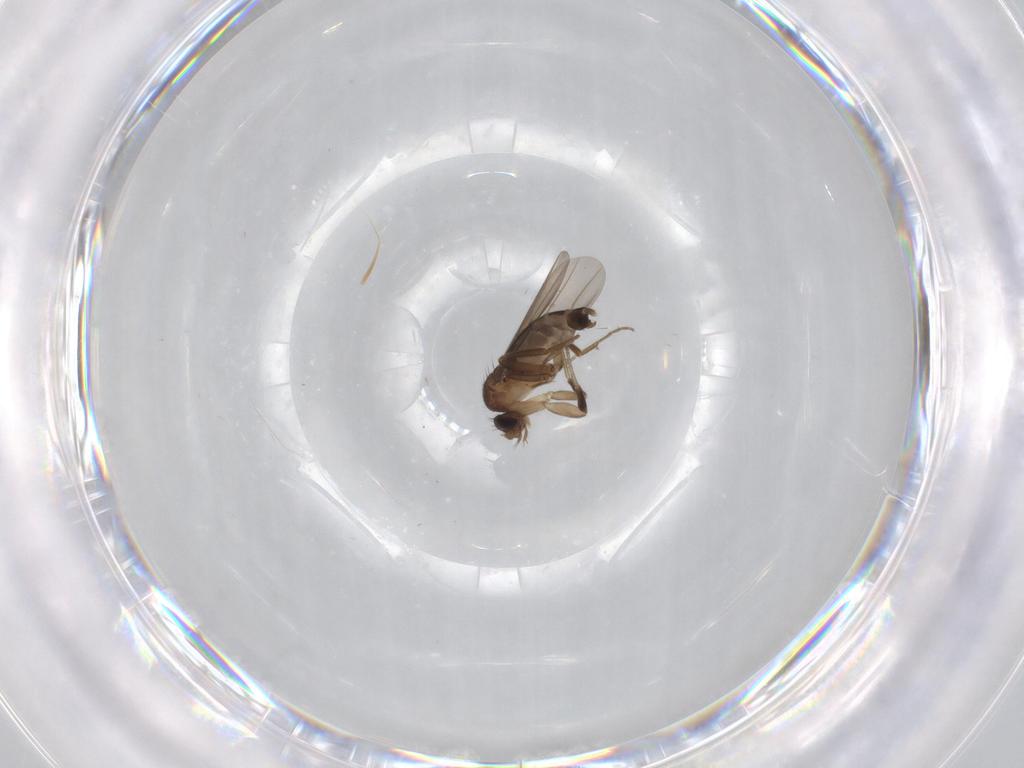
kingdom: Animalia
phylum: Arthropoda
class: Insecta
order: Diptera
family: Phoridae
